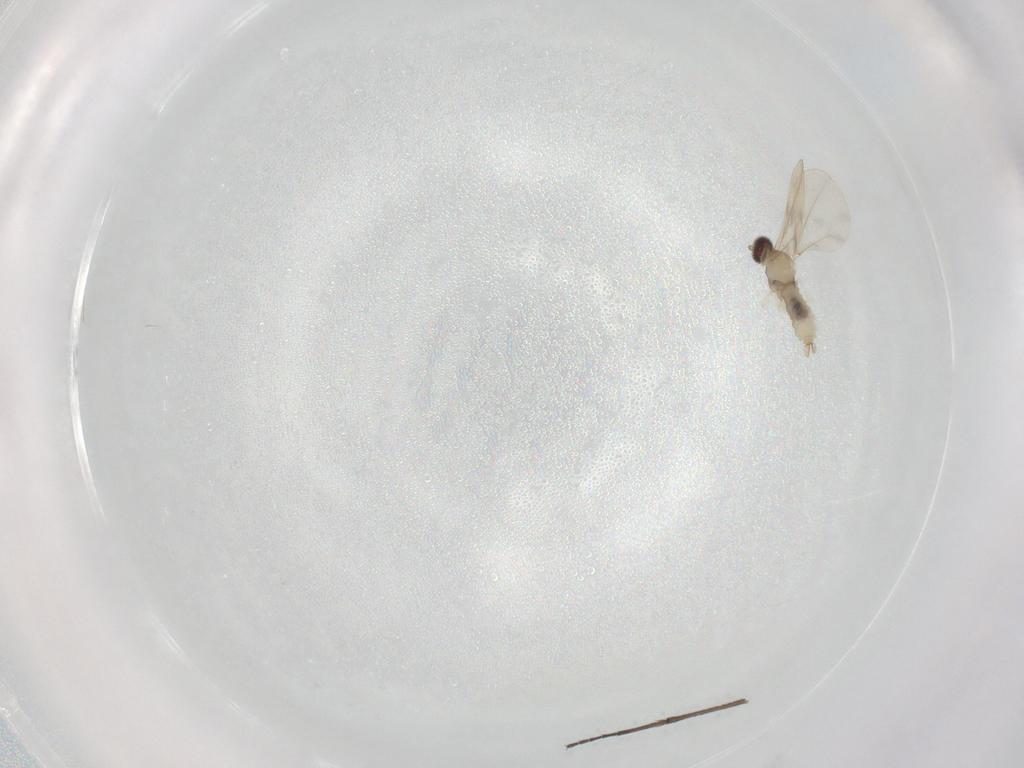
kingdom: Animalia
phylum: Arthropoda
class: Insecta
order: Diptera
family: Sciaridae
